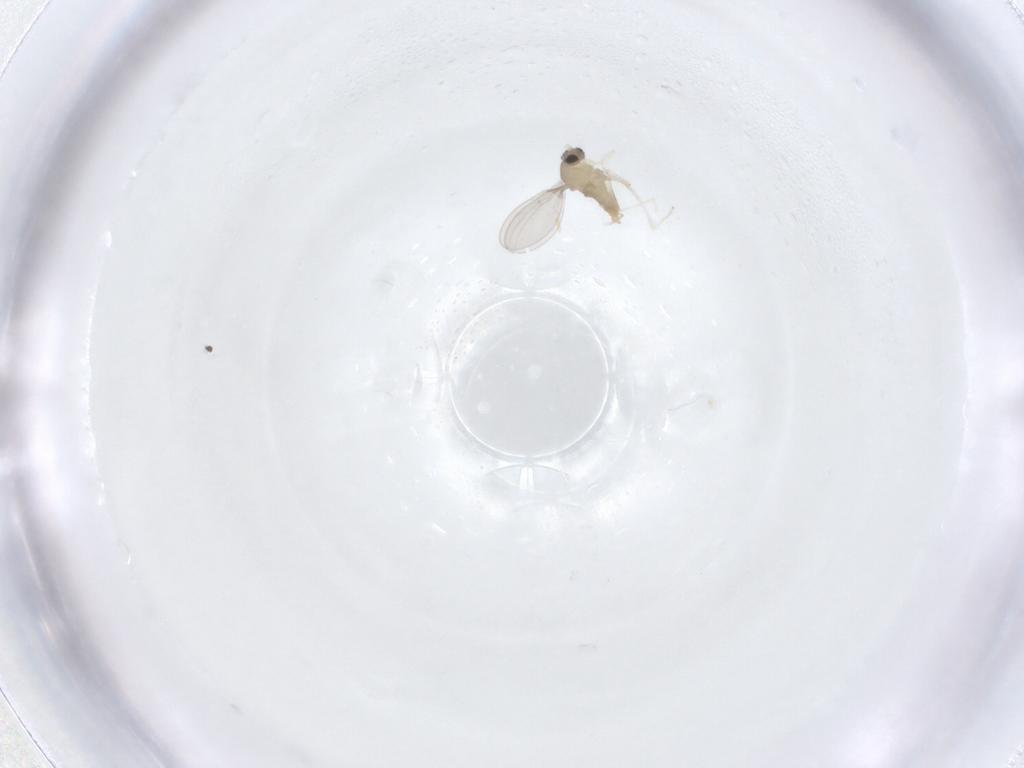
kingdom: Animalia
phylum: Arthropoda
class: Insecta
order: Diptera
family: Cecidomyiidae
